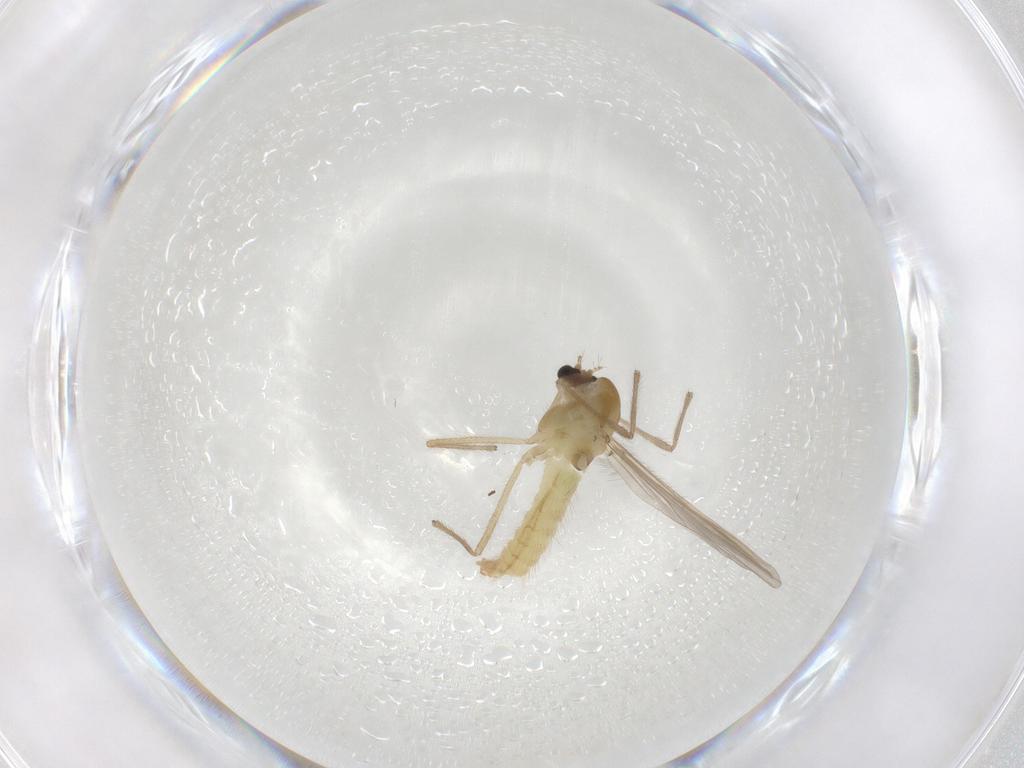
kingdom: Animalia
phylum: Arthropoda
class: Insecta
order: Diptera
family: Chironomidae
